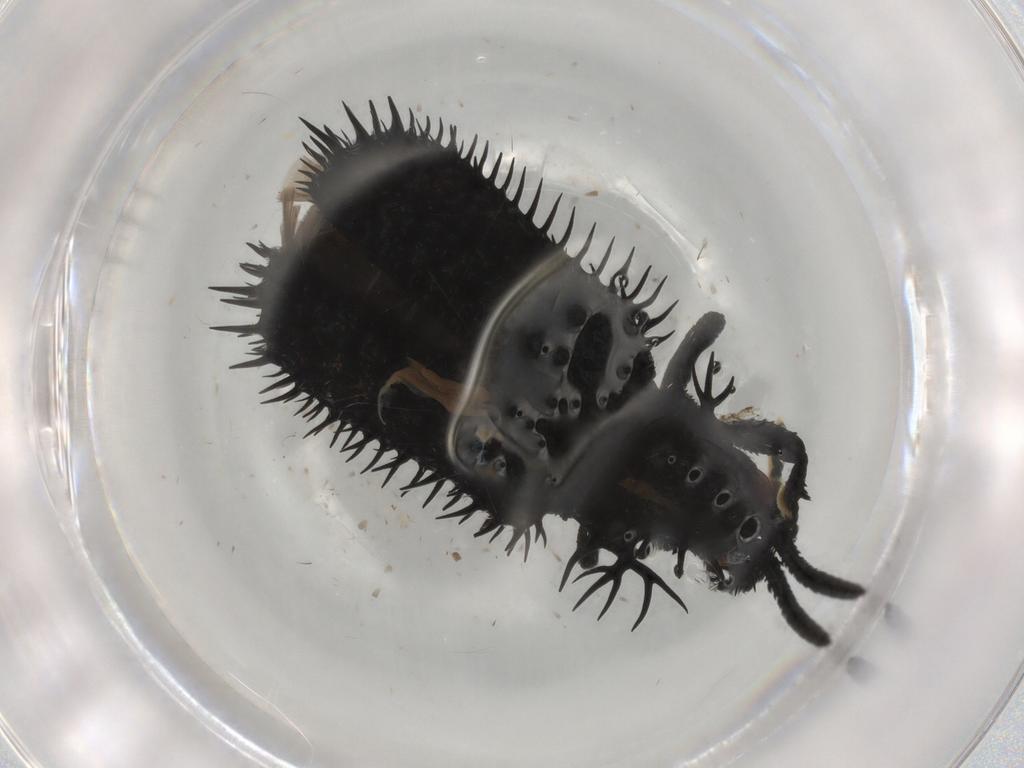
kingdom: Animalia
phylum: Arthropoda
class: Insecta
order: Coleoptera
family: Chrysomelidae
